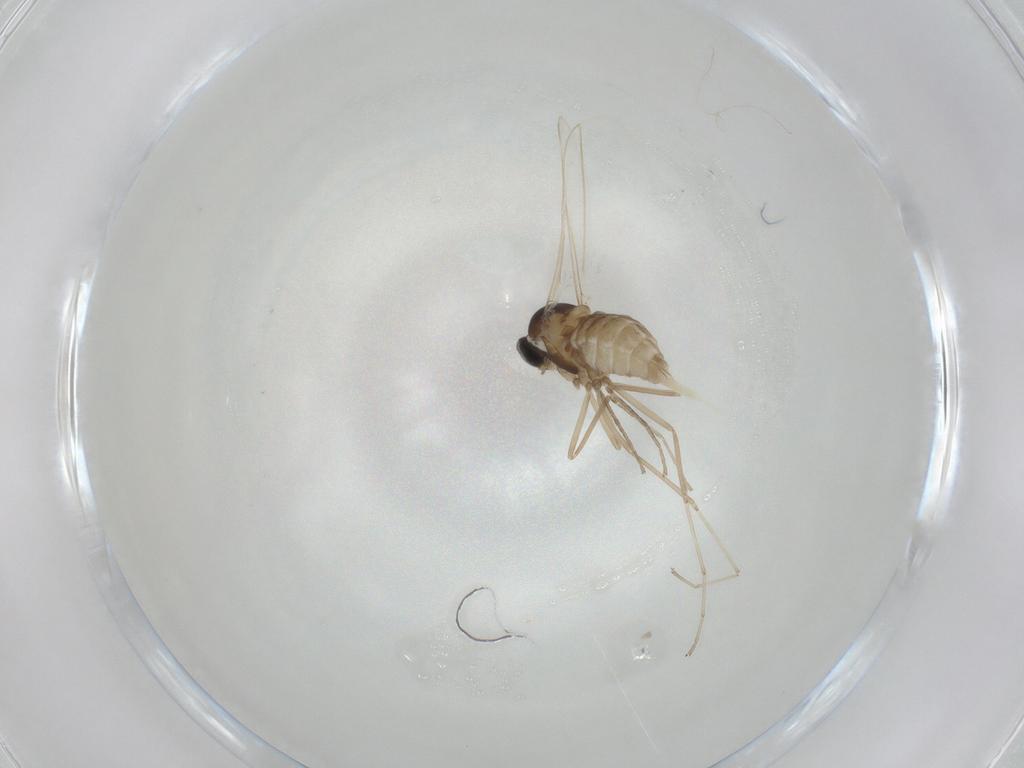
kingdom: Animalia
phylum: Arthropoda
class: Insecta
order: Diptera
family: Cecidomyiidae
